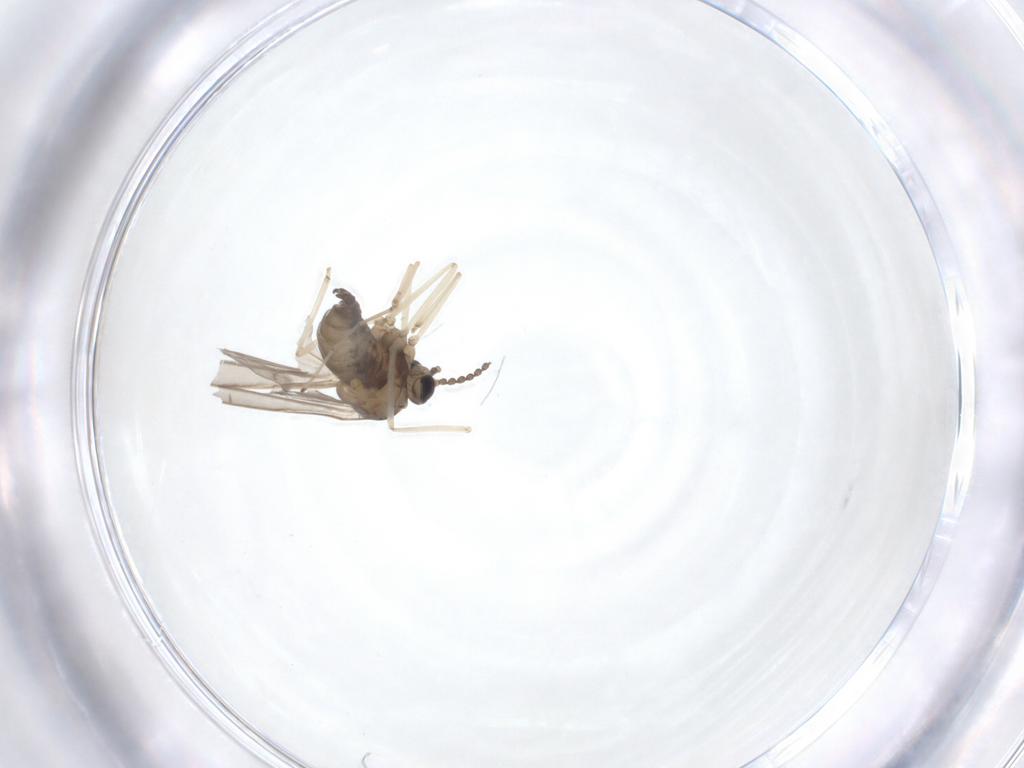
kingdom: Animalia
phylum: Arthropoda
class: Insecta
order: Diptera
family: Cecidomyiidae
